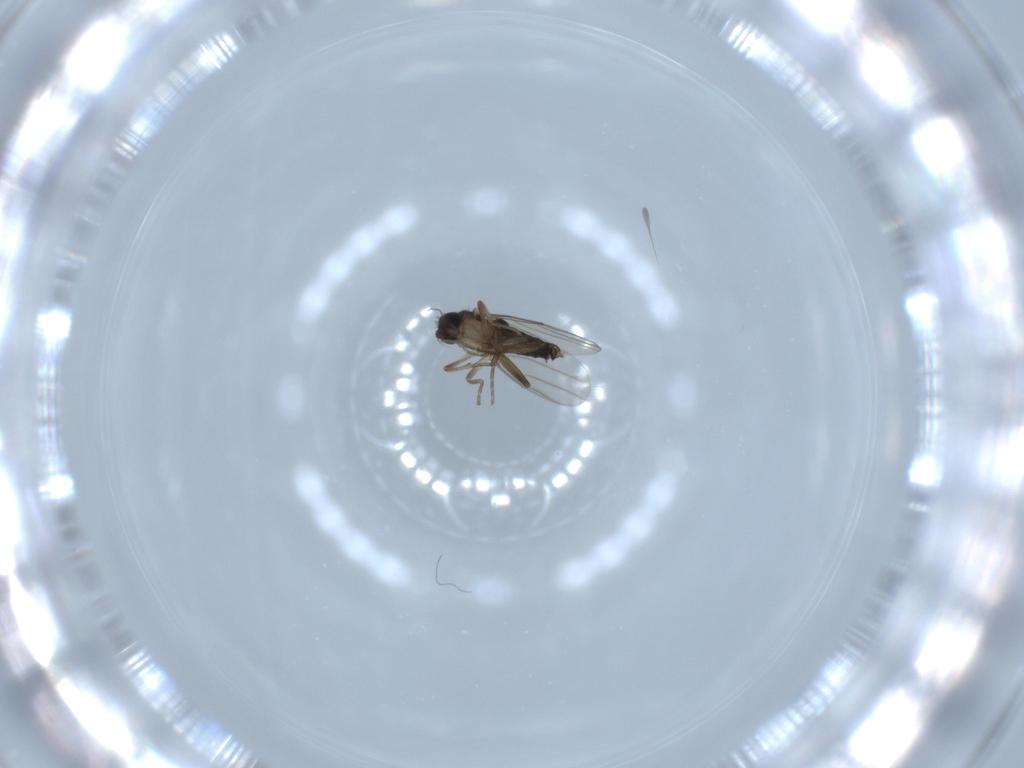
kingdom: Animalia
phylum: Arthropoda
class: Insecta
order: Diptera
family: Phoridae
